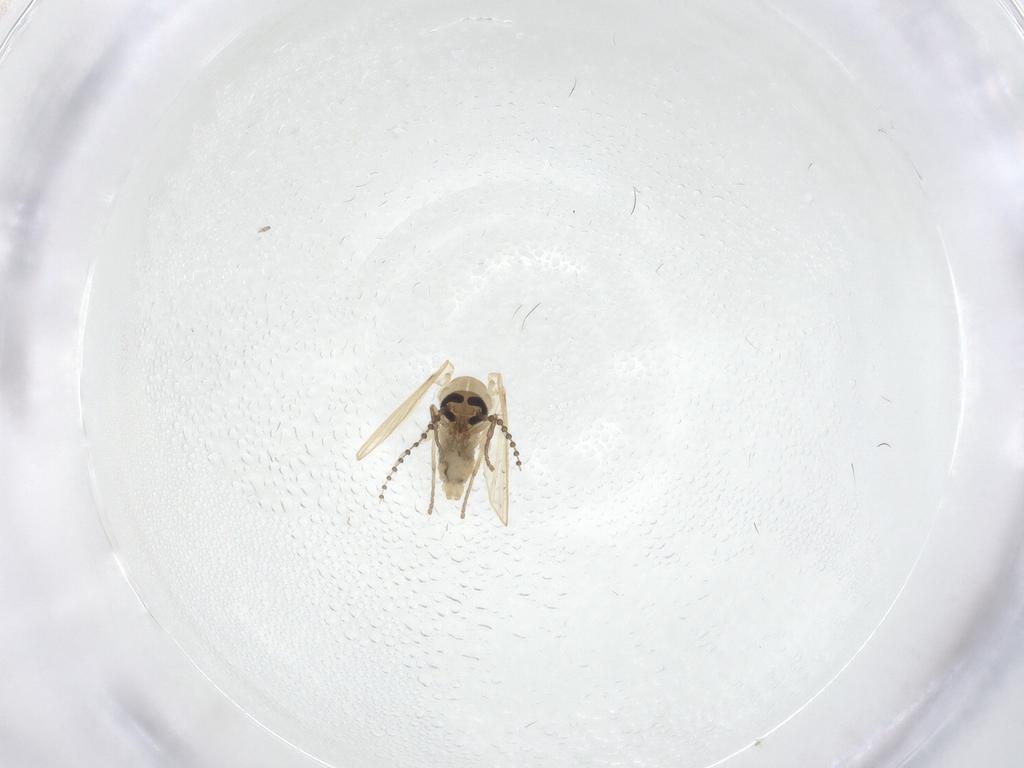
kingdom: Animalia
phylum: Arthropoda
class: Insecta
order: Diptera
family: Psychodidae
